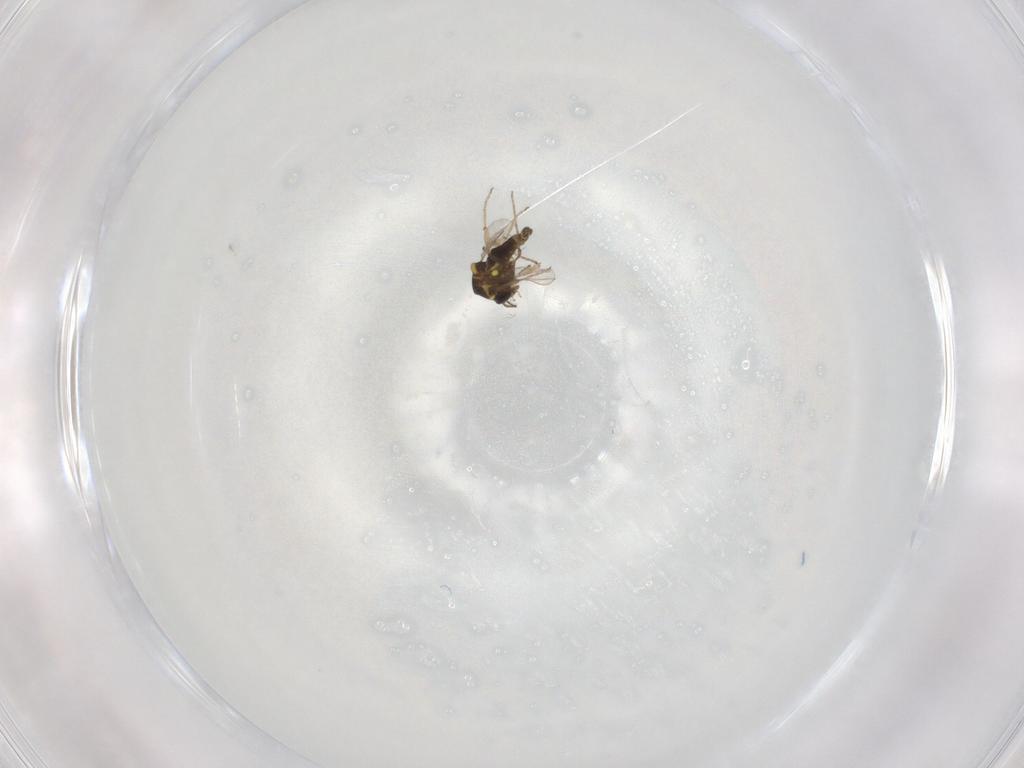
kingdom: Animalia
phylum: Arthropoda
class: Insecta
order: Diptera
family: Ceratopogonidae
